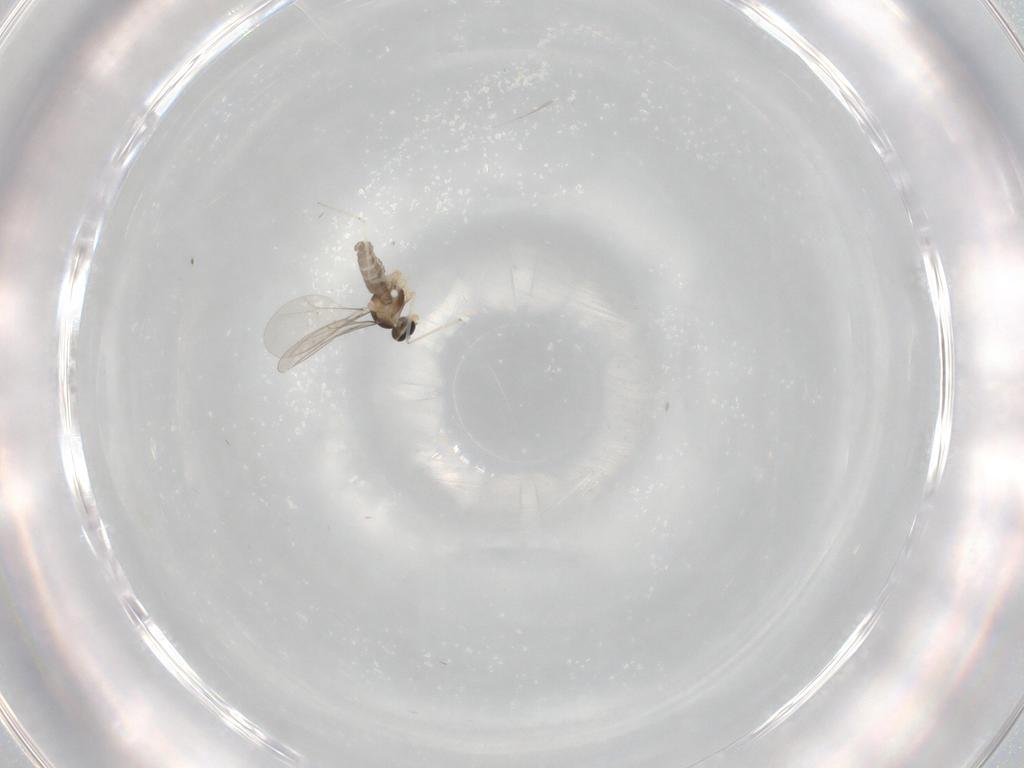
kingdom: Animalia
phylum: Arthropoda
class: Insecta
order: Diptera
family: Cecidomyiidae
